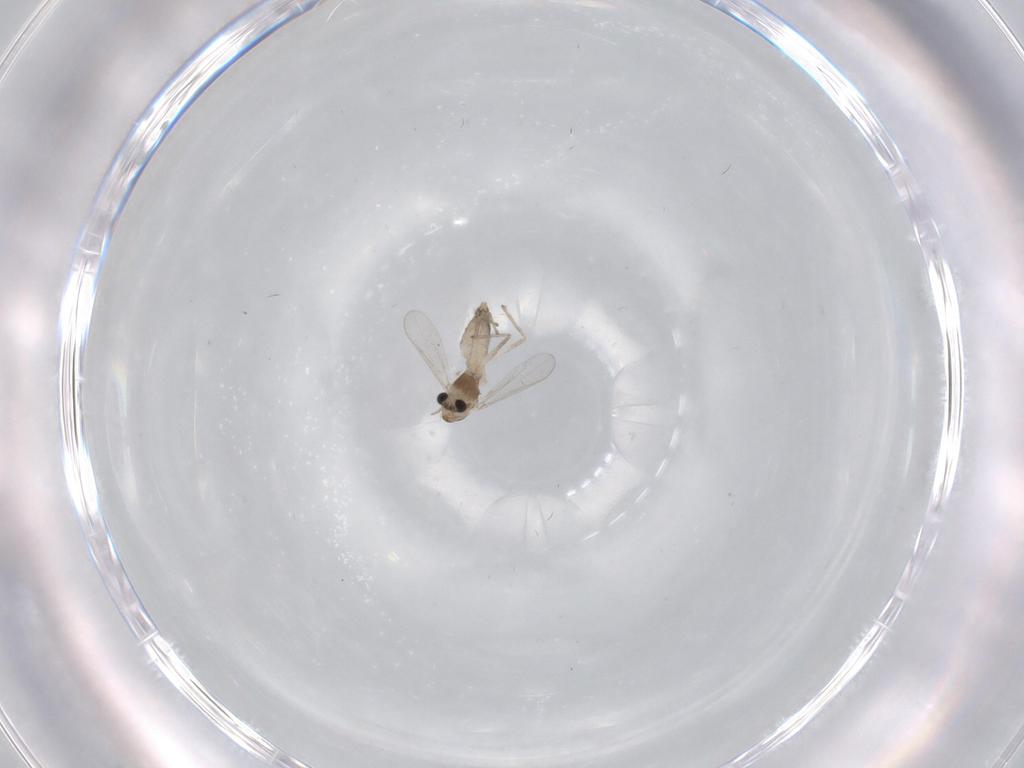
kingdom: Animalia
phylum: Arthropoda
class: Insecta
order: Diptera
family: Chironomidae
